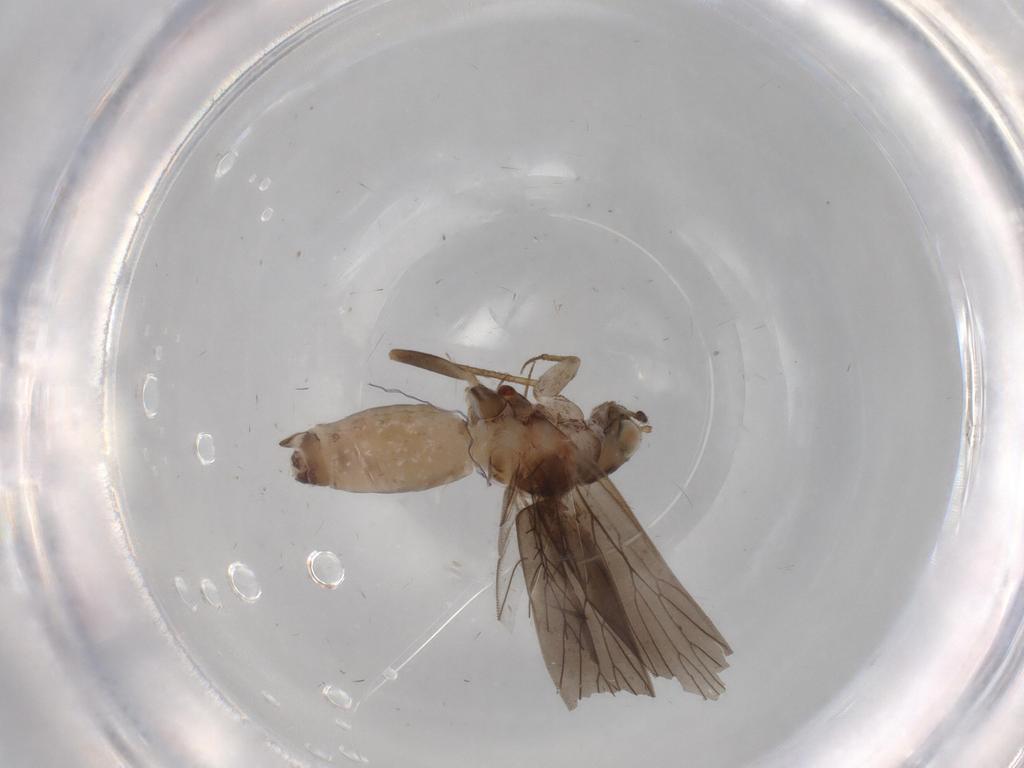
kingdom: Animalia
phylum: Arthropoda
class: Insecta
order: Psocodea
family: Lepidopsocidae
